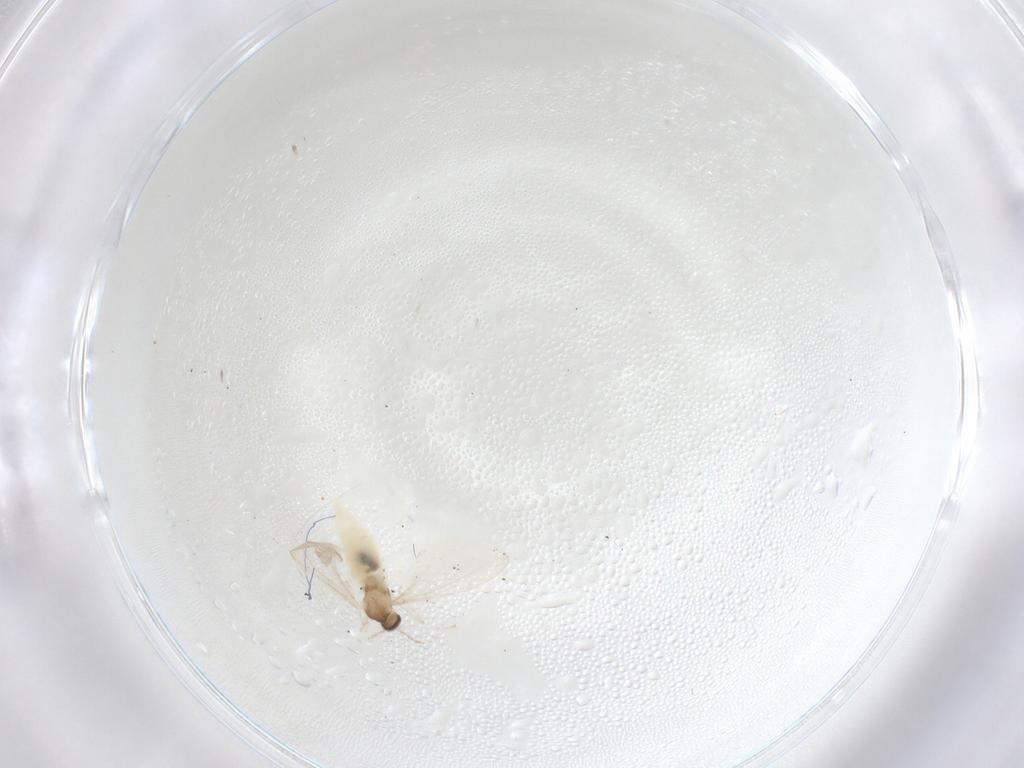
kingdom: Animalia
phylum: Arthropoda
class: Insecta
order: Diptera
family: Cecidomyiidae
